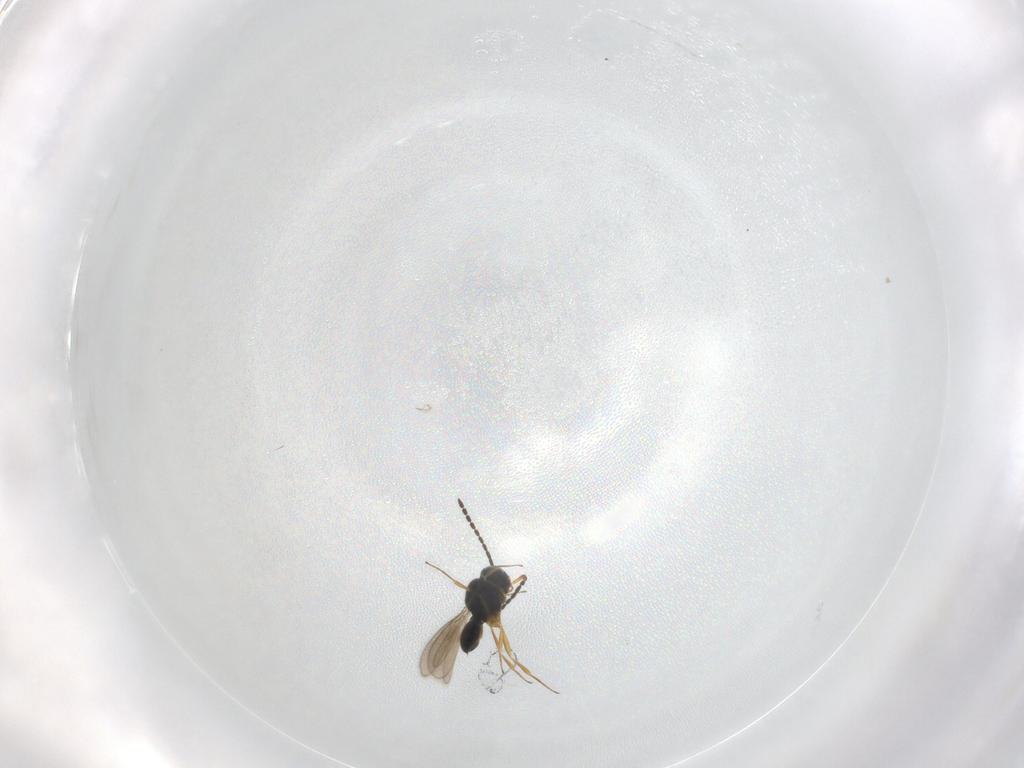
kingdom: Animalia
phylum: Arthropoda
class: Insecta
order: Hymenoptera
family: Scelionidae
